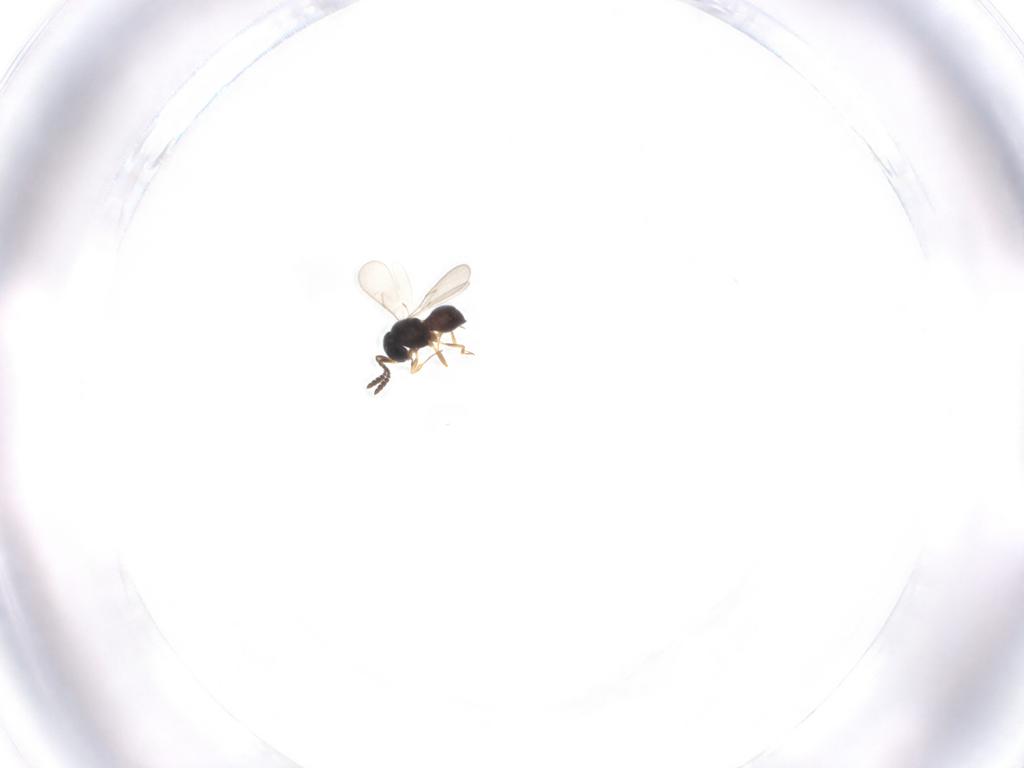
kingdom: Animalia
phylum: Arthropoda
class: Insecta
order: Hymenoptera
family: Scelionidae
